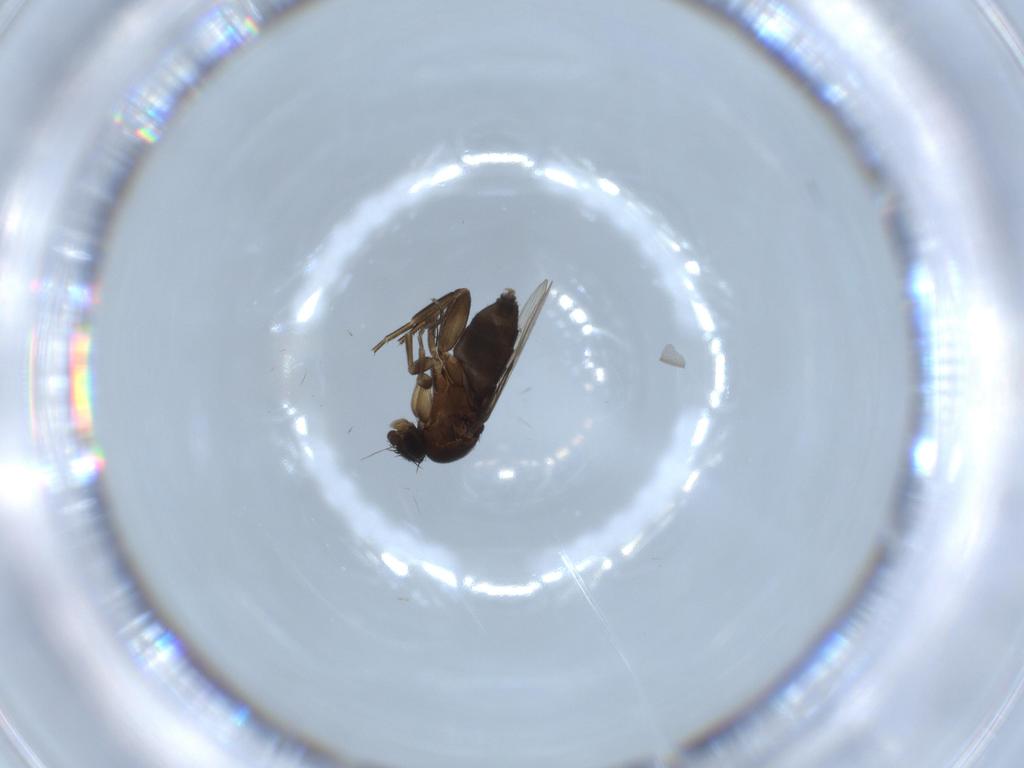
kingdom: Animalia
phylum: Arthropoda
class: Insecta
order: Diptera
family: Phoridae
